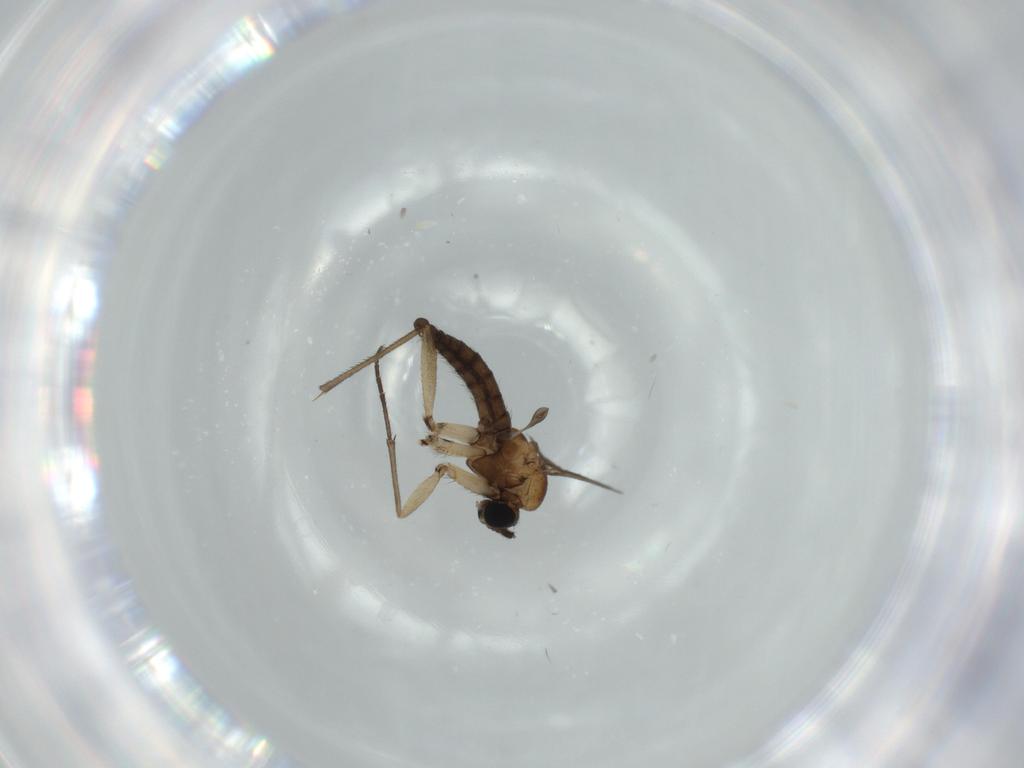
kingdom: Animalia
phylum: Arthropoda
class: Insecta
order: Diptera
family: Sciaridae
